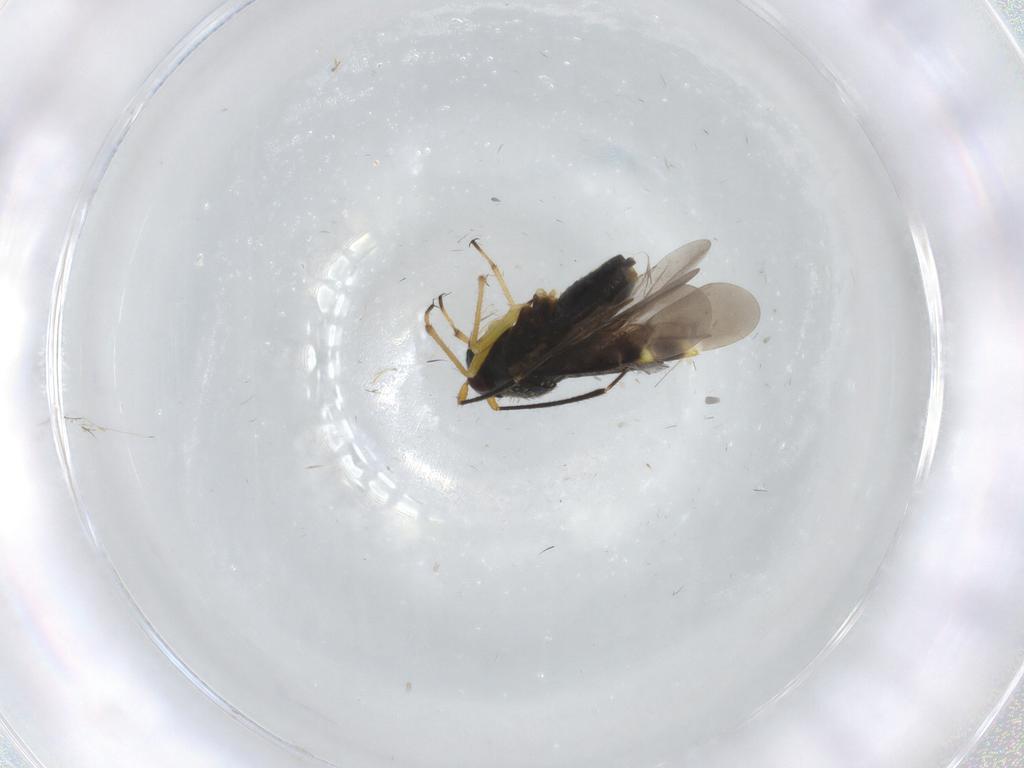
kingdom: Animalia
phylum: Arthropoda
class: Insecta
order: Hemiptera
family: Miridae
